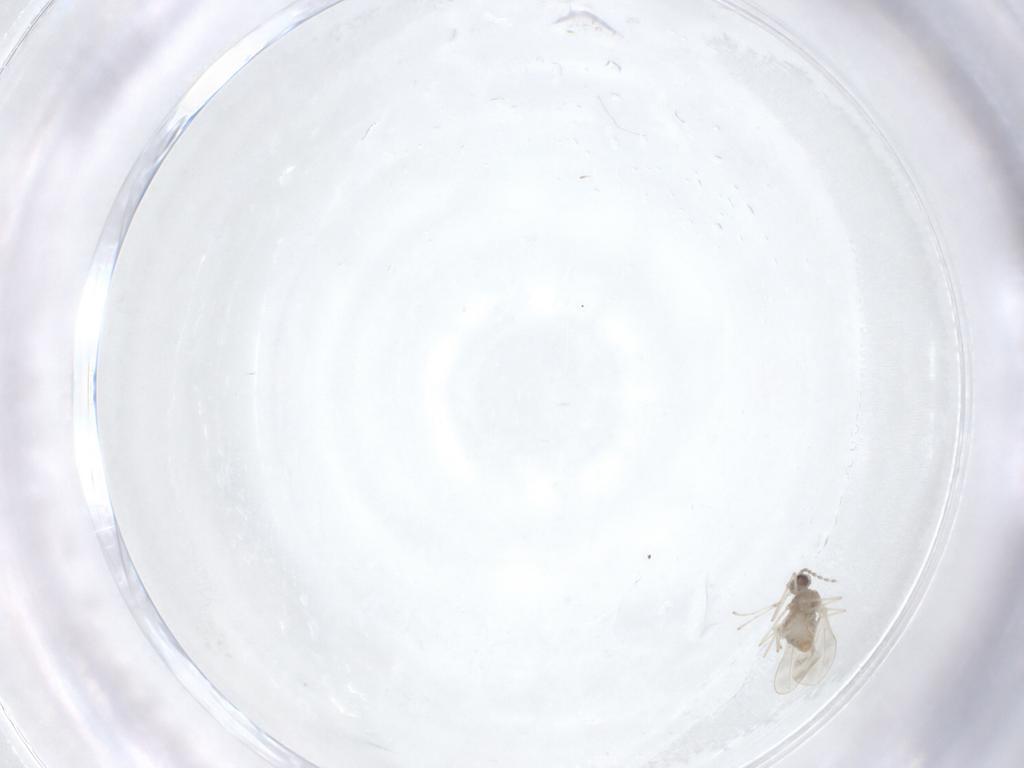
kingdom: Animalia
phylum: Arthropoda
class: Insecta
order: Diptera
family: Cecidomyiidae
